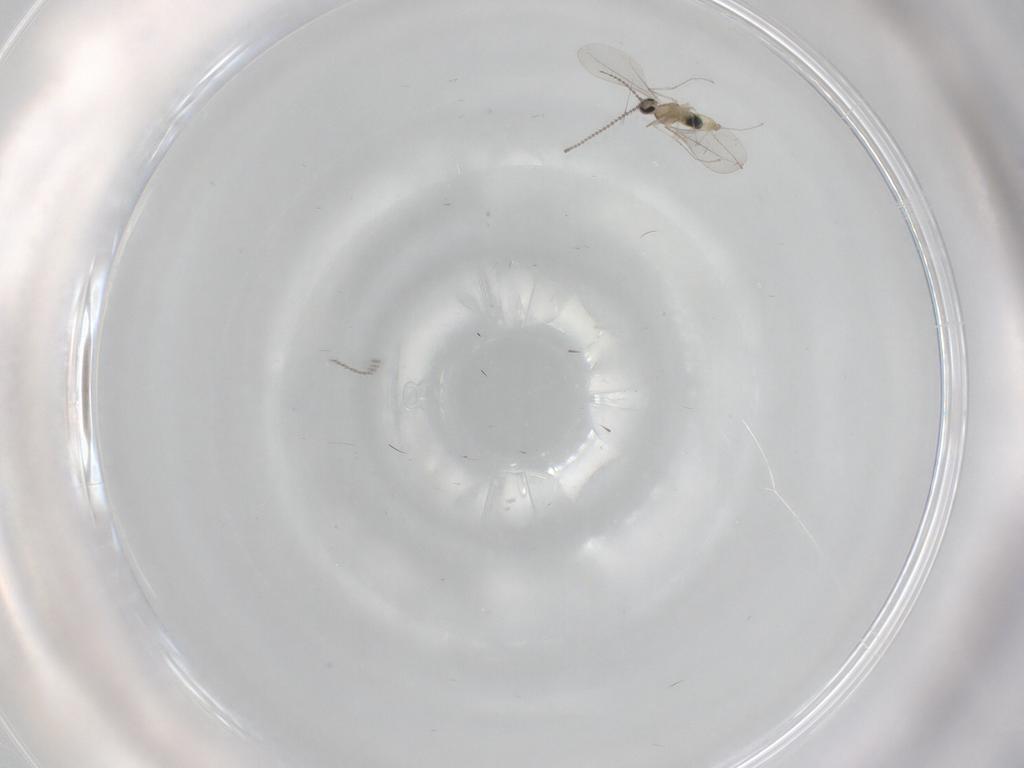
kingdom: Animalia
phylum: Arthropoda
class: Insecta
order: Diptera
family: Cecidomyiidae
